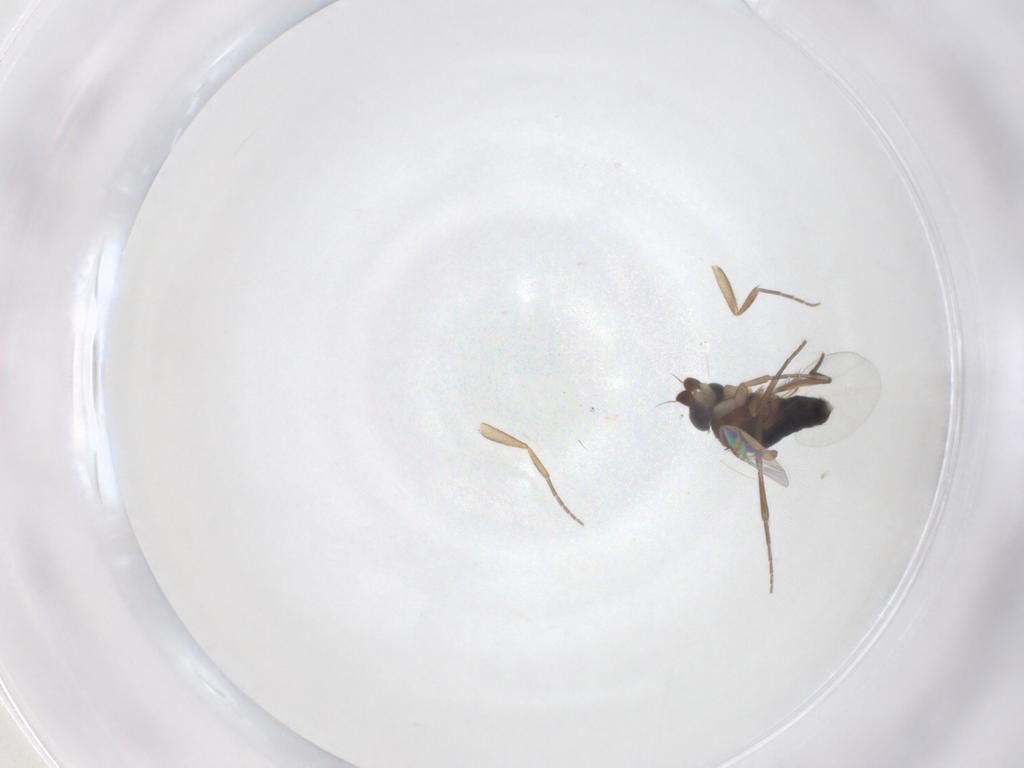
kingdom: Animalia
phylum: Arthropoda
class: Insecta
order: Diptera
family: Phoridae
